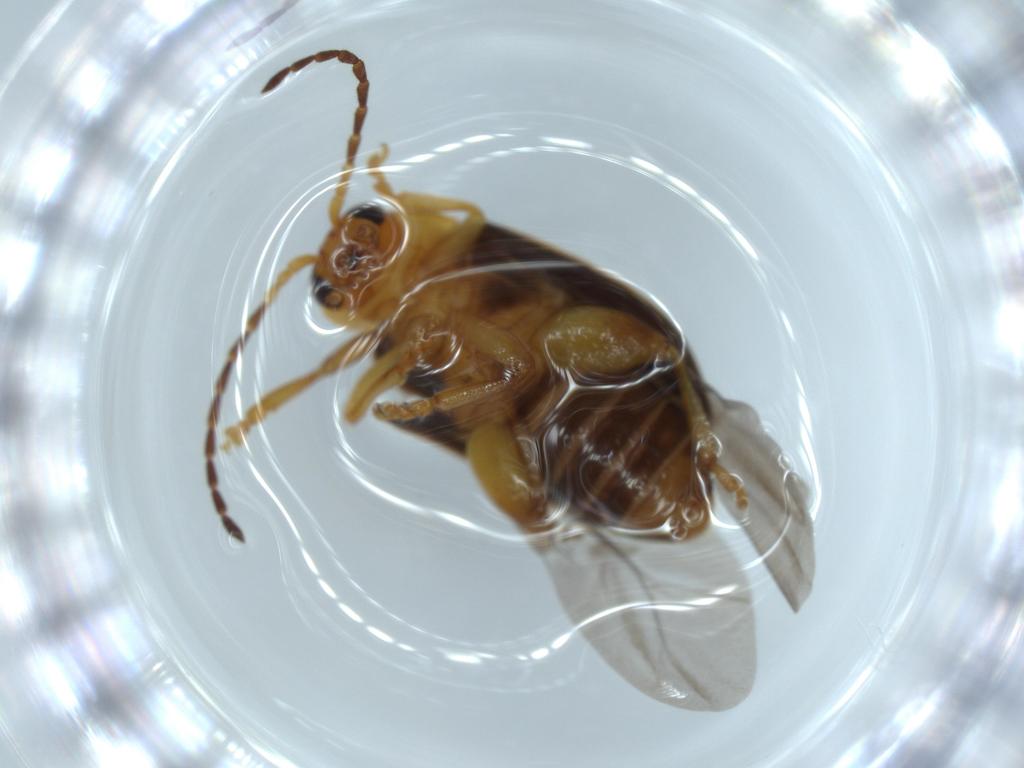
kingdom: Animalia
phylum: Arthropoda
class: Insecta
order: Coleoptera
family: Chrysomelidae
